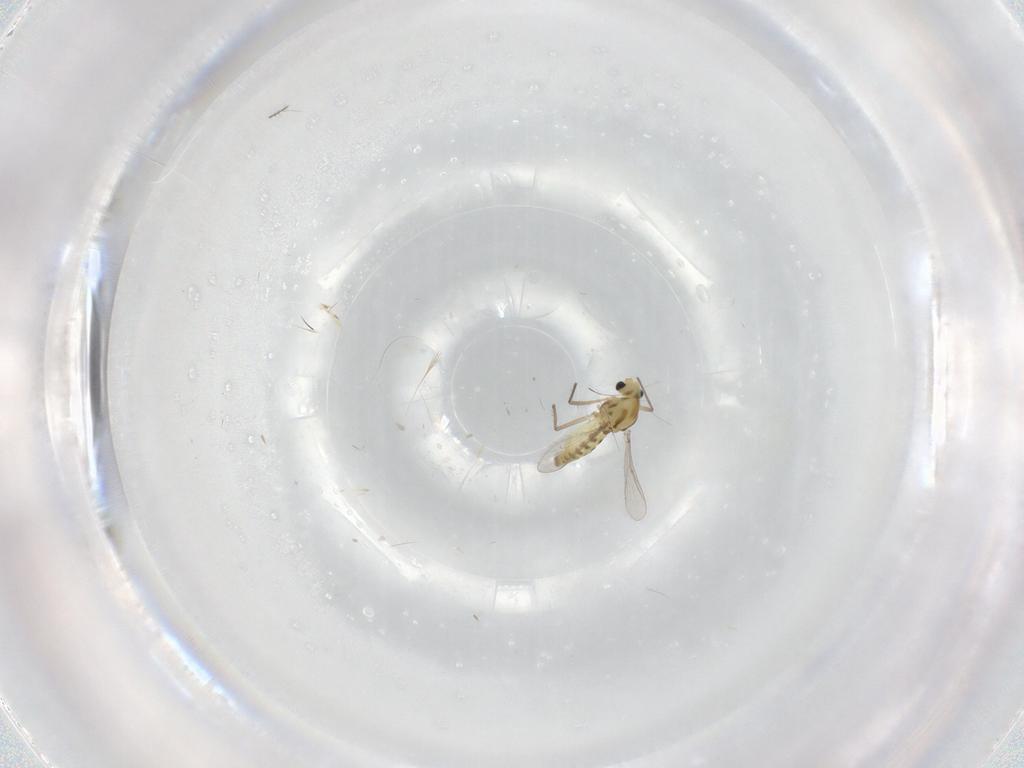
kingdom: Animalia
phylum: Arthropoda
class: Insecta
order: Diptera
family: Chironomidae
